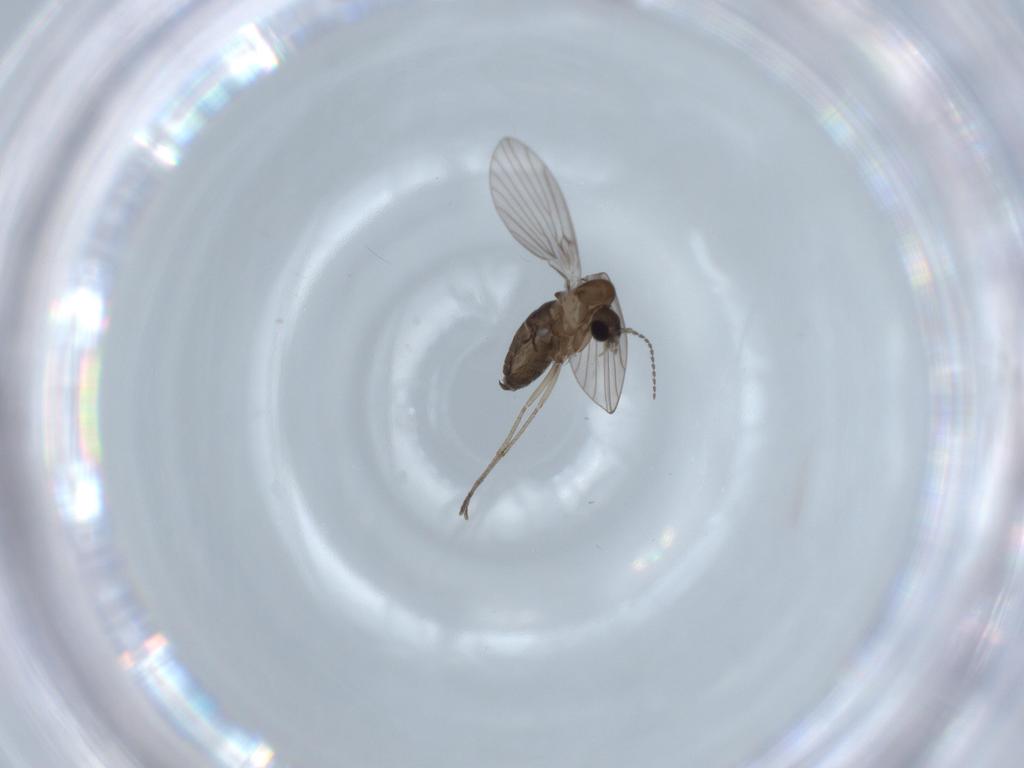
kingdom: Animalia
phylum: Arthropoda
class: Insecta
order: Diptera
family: Psychodidae
